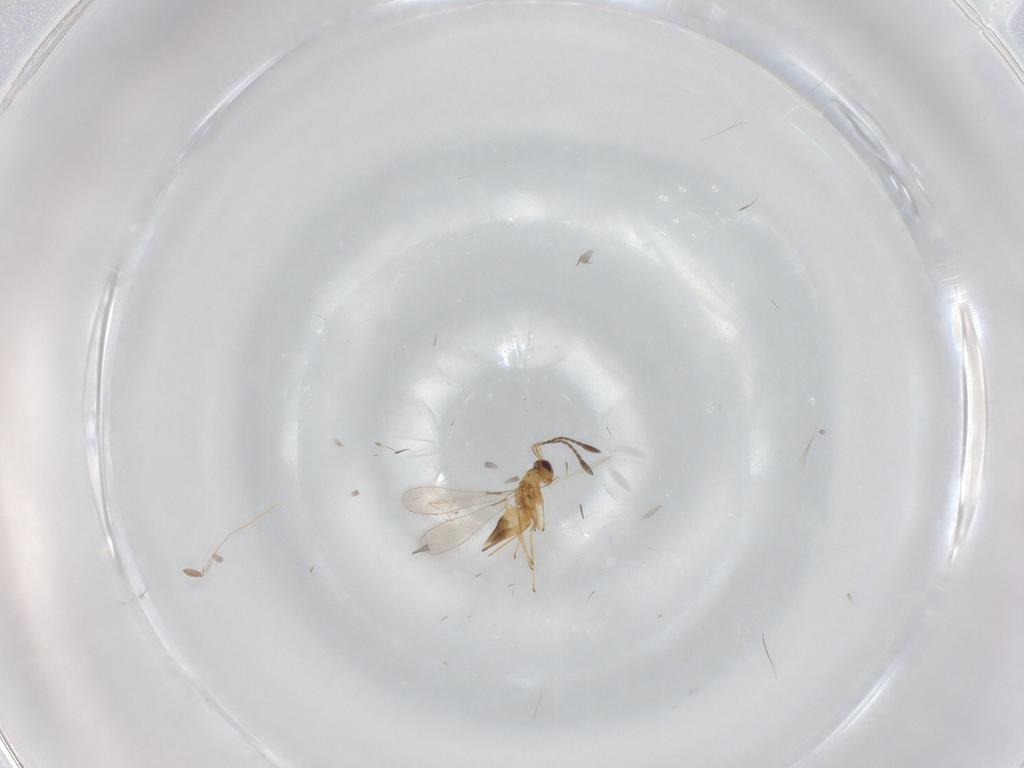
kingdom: Animalia
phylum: Arthropoda
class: Insecta
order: Hymenoptera
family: Mymaridae
